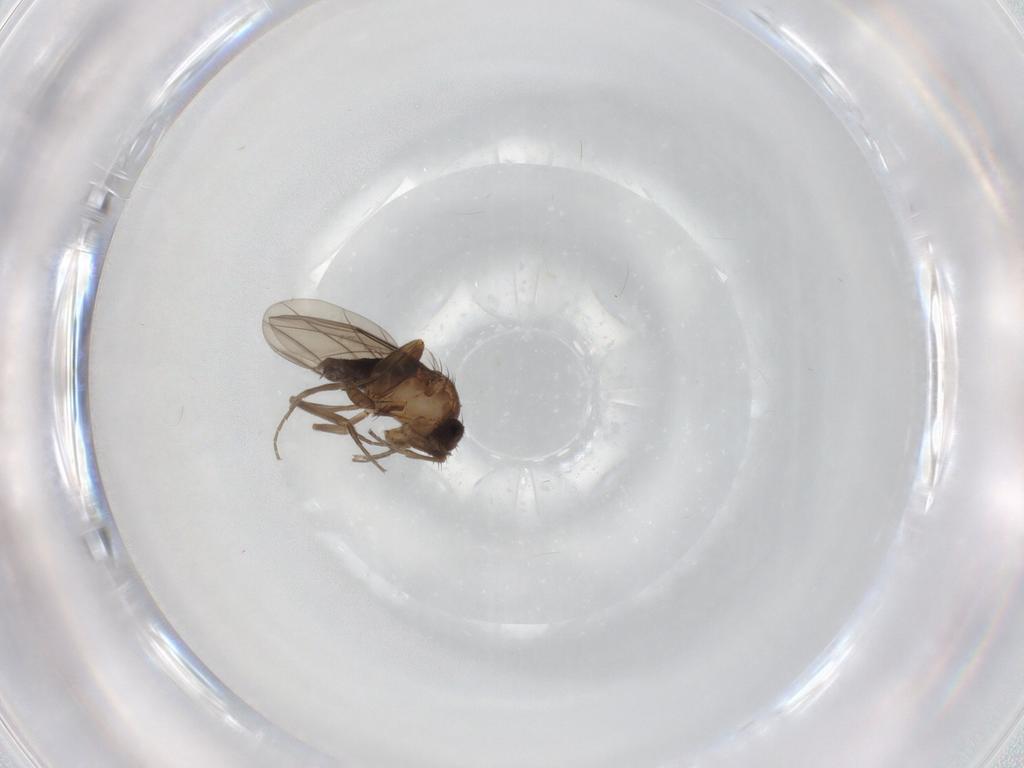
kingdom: Animalia
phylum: Arthropoda
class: Insecta
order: Diptera
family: Phoridae
